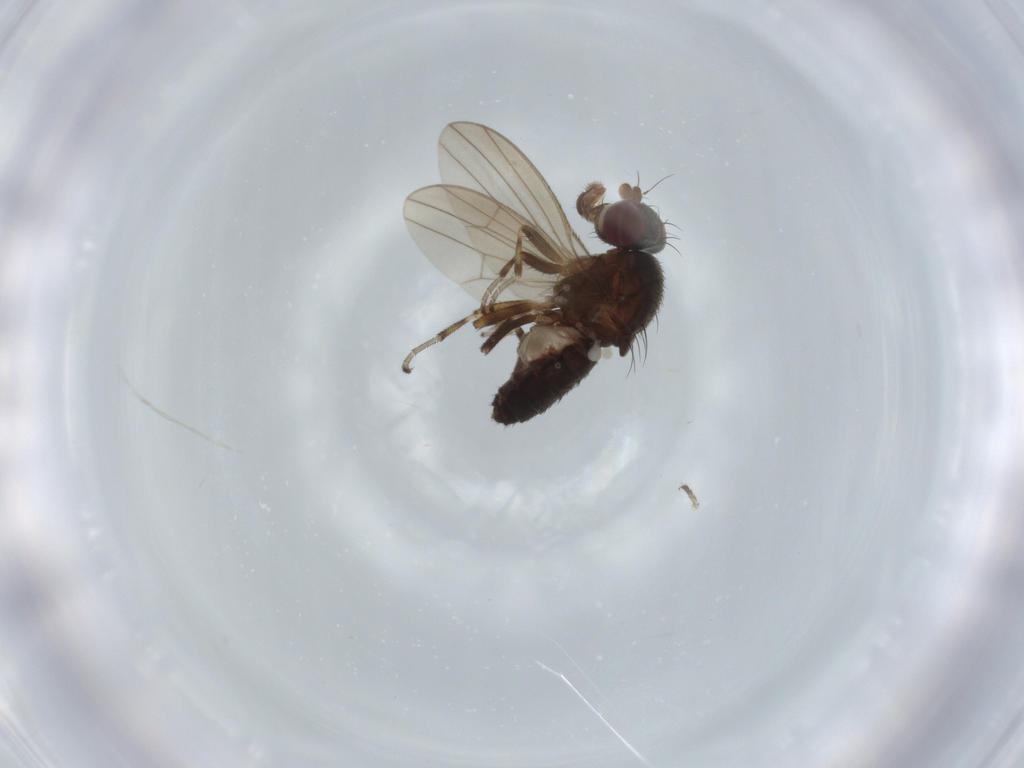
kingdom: Animalia
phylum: Arthropoda
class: Insecta
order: Diptera
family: Heleomyzidae
